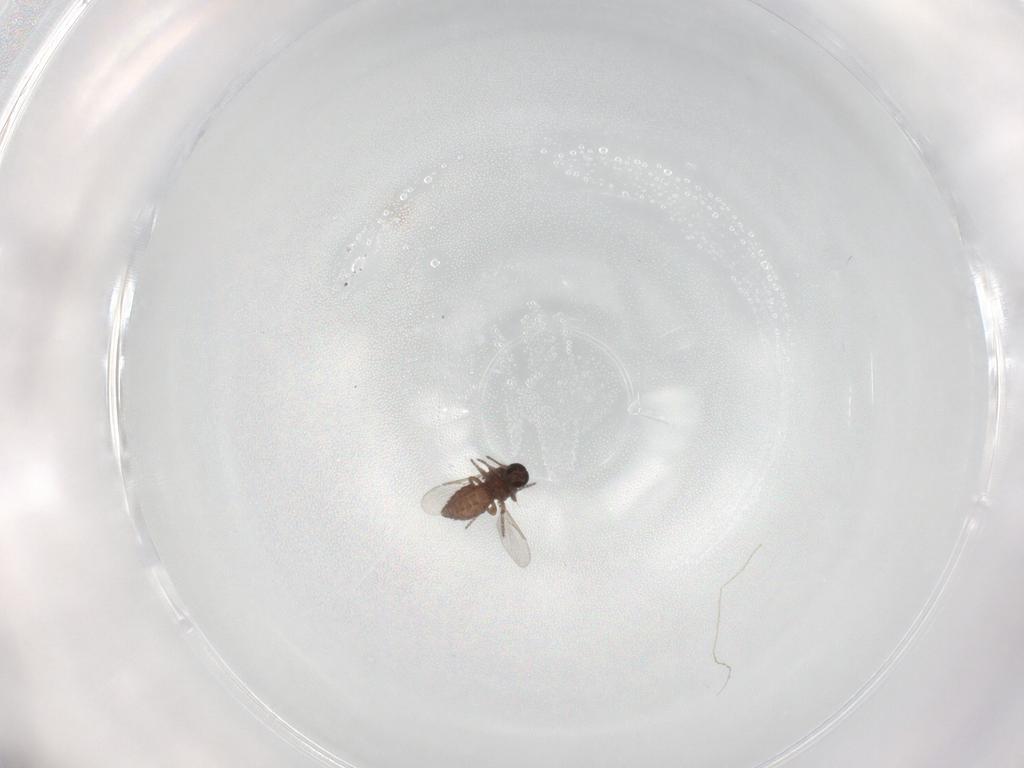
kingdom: Animalia
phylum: Arthropoda
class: Insecta
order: Diptera
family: Ceratopogonidae
